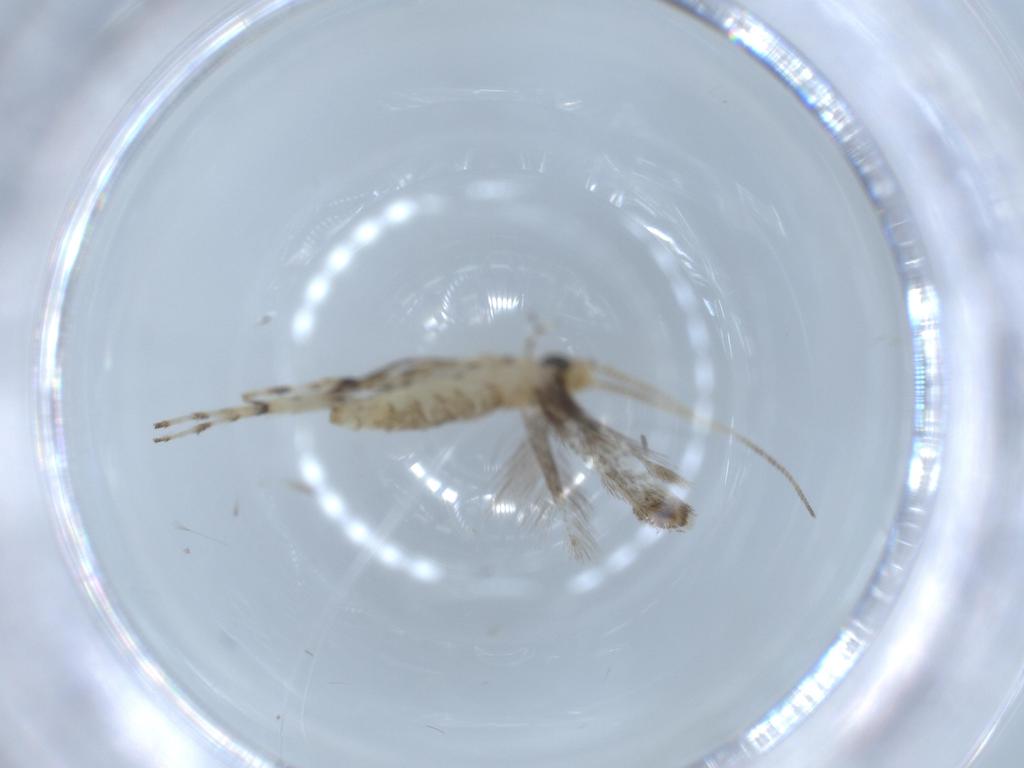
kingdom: Animalia
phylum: Arthropoda
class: Insecta
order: Lepidoptera
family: Gracillariidae
